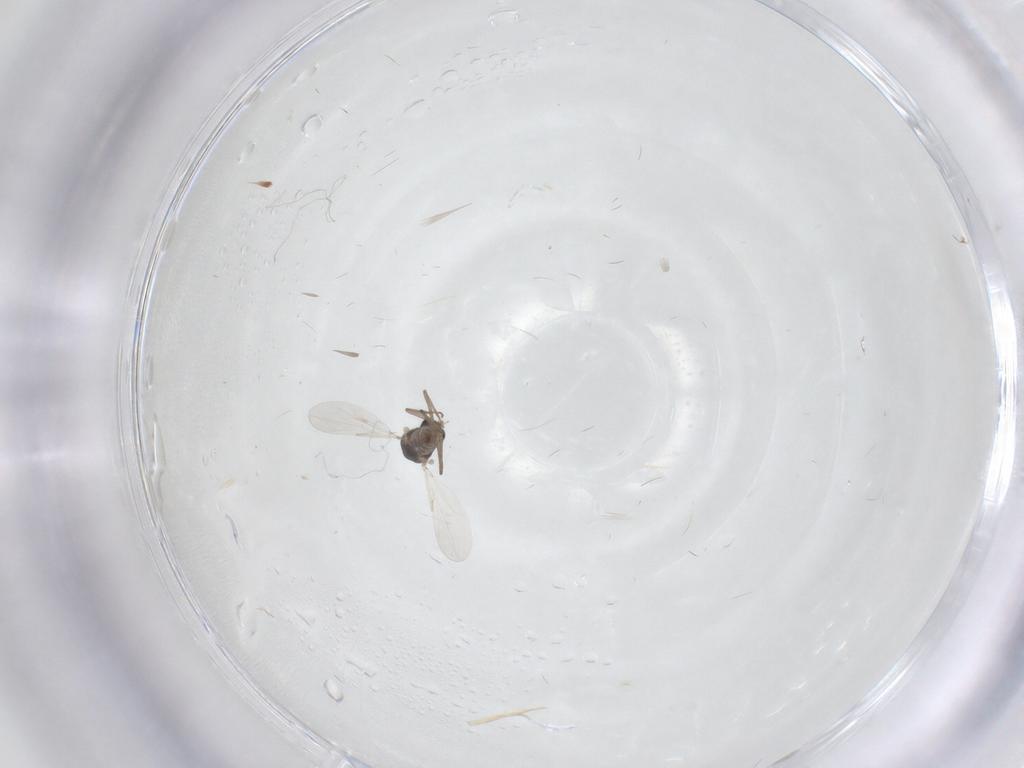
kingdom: Animalia
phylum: Arthropoda
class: Insecta
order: Diptera
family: Ceratopogonidae
